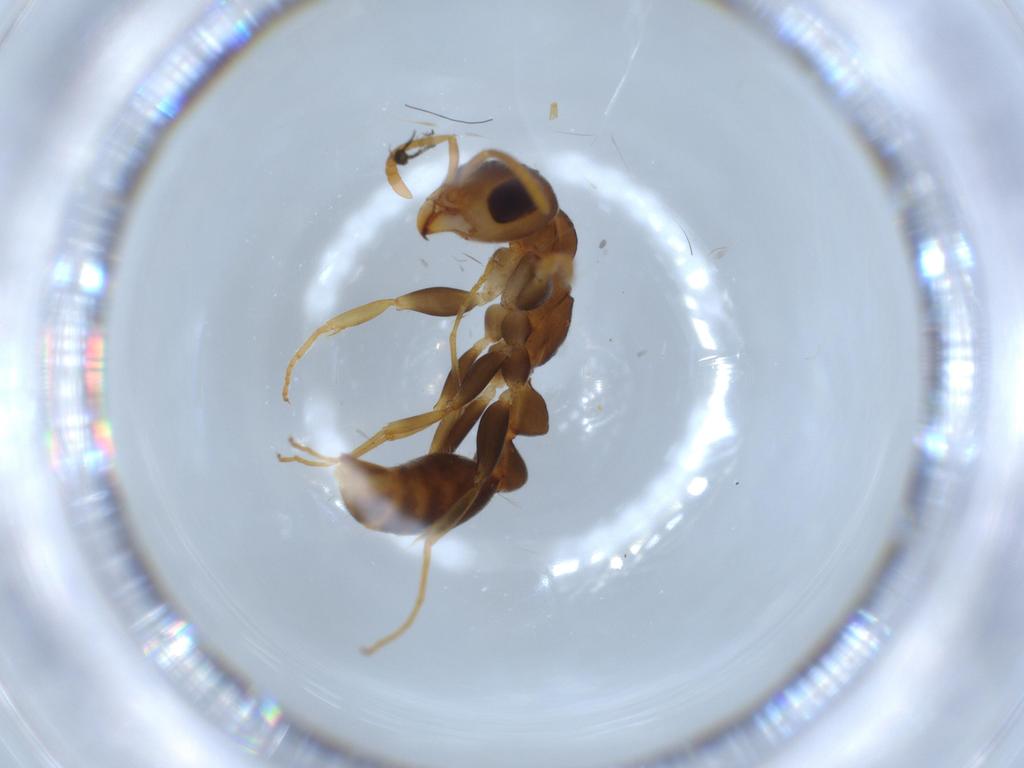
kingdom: Animalia
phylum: Arthropoda
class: Insecta
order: Hymenoptera
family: Formicidae
